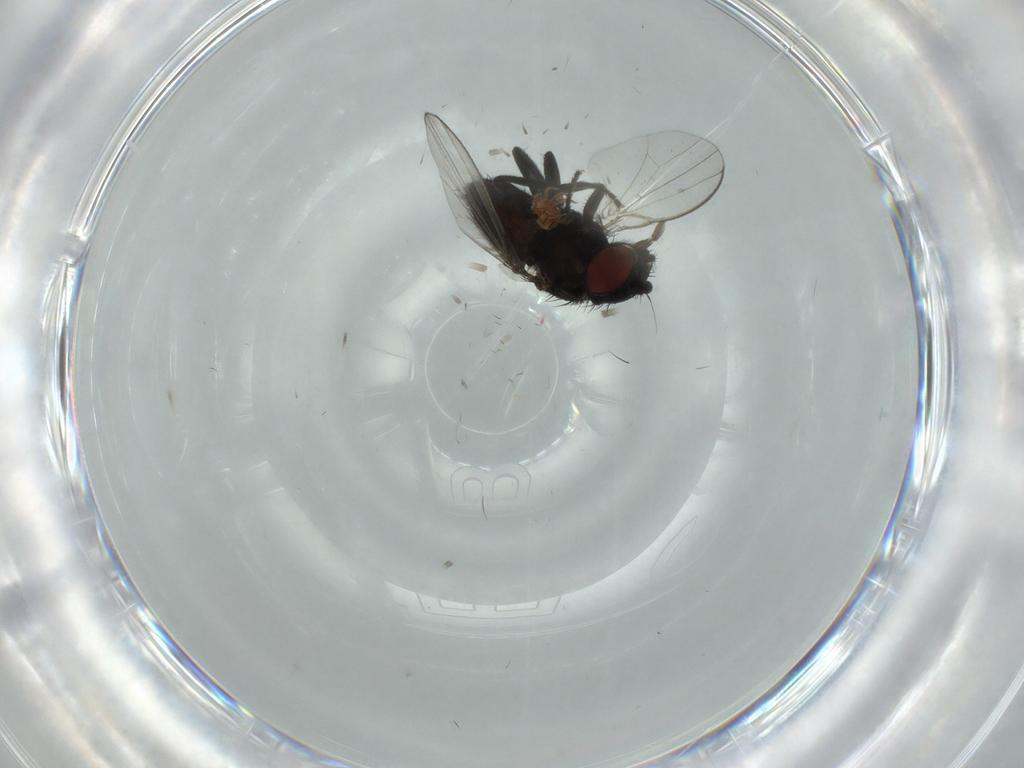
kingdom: Animalia
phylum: Arthropoda
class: Insecta
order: Diptera
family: Milichiidae
